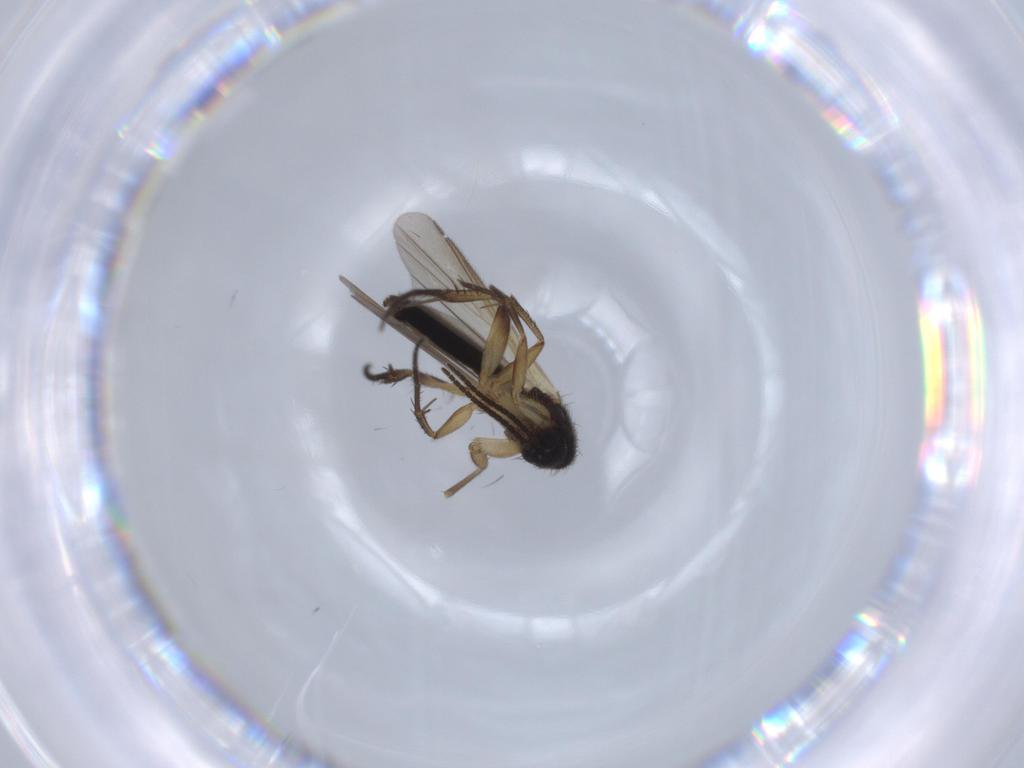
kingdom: Animalia
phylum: Arthropoda
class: Insecta
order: Diptera
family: Mycetophilidae
